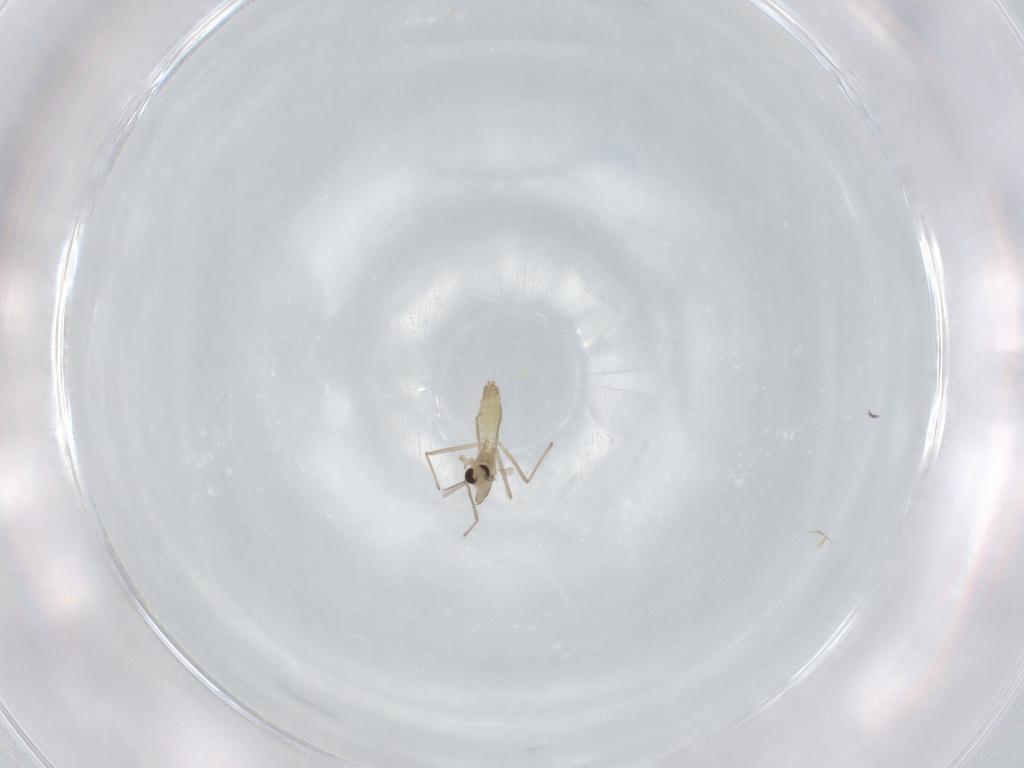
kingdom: Animalia
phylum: Arthropoda
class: Insecta
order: Diptera
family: Chironomidae
